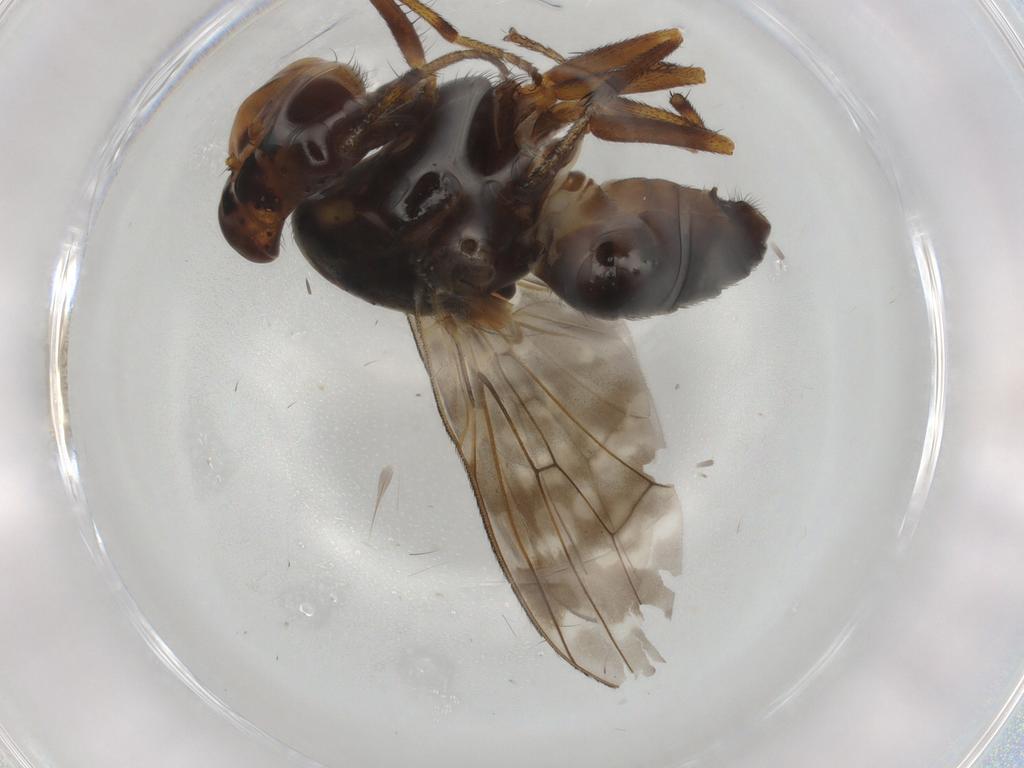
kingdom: Animalia
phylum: Arthropoda
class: Insecta
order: Diptera
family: Lauxaniidae
